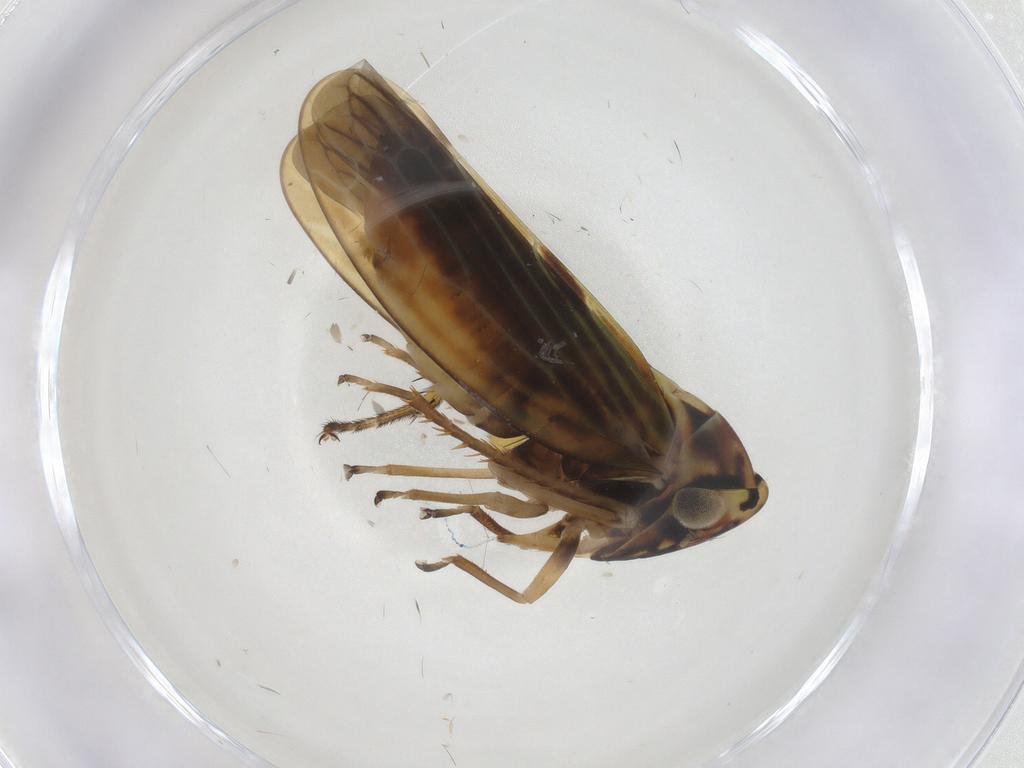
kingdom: Animalia
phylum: Arthropoda
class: Insecta
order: Hemiptera
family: Cicadellidae
